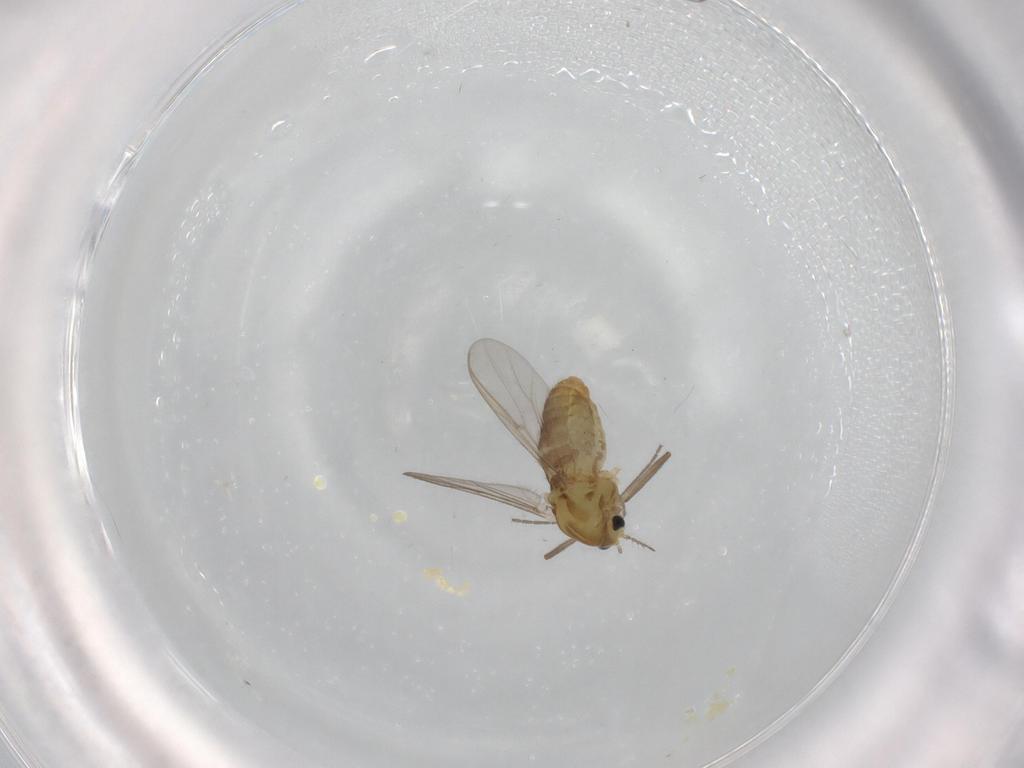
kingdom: Animalia
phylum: Arthropoda
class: Insecta
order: Diptera
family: Chironomidae
